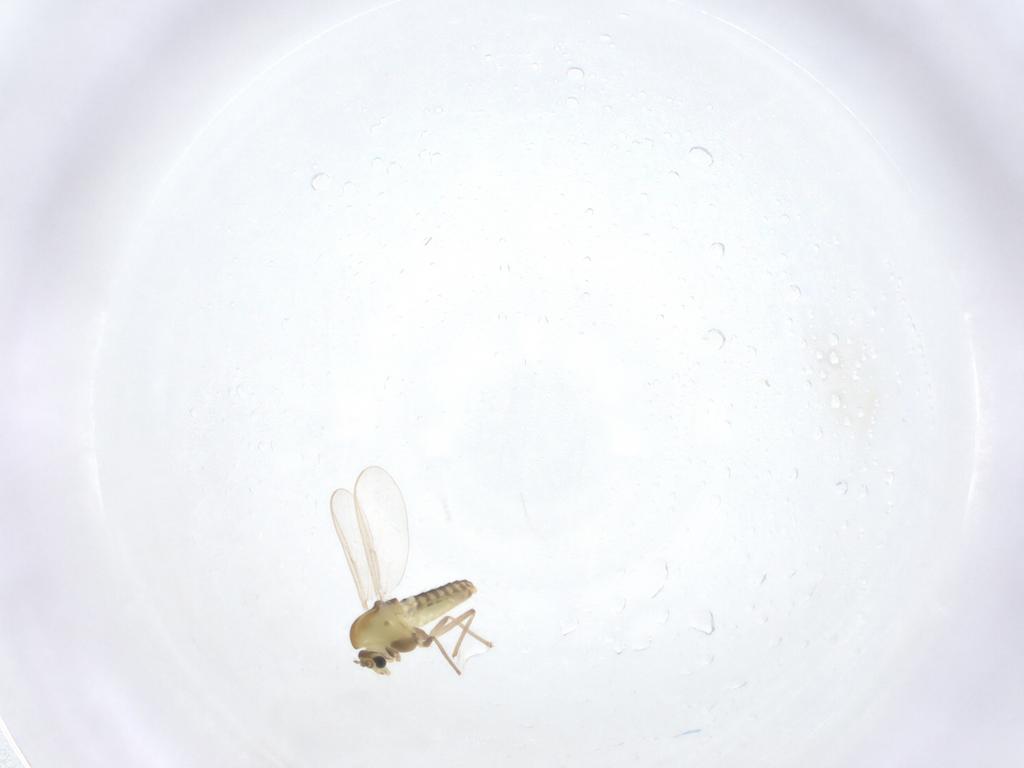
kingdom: Animalia
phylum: Arthropoda
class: Insecta
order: Diptera
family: Chironomidae
